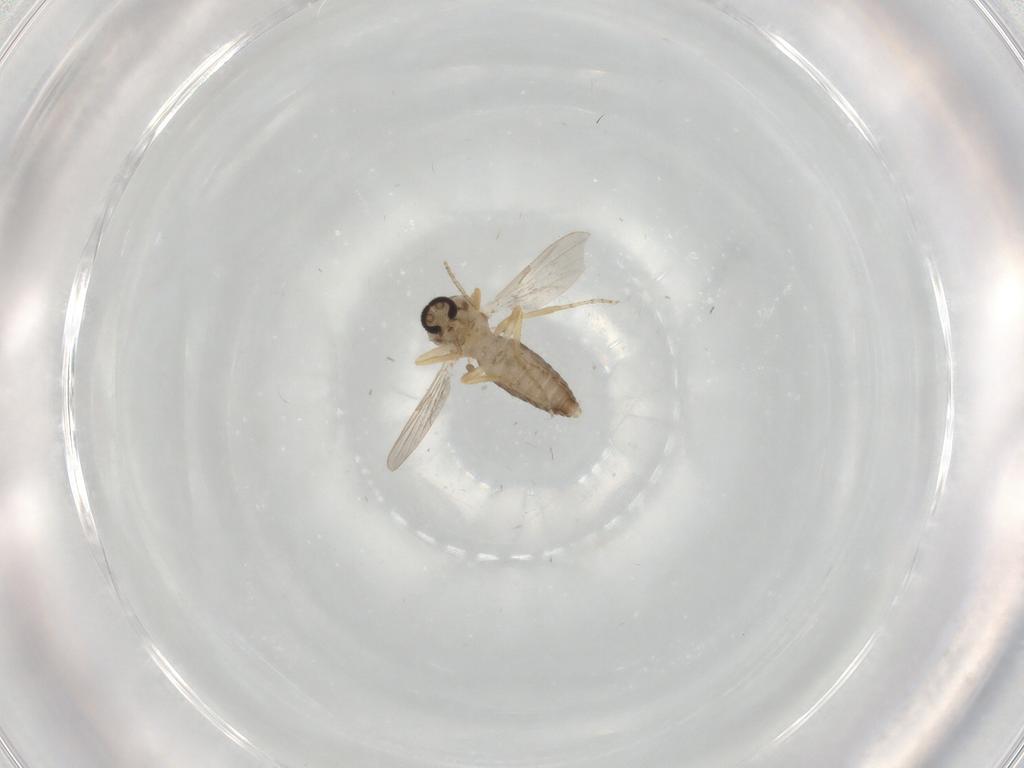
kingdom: Animalia
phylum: Arthropoda
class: Insecta
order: Diptera
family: Ceratopogonidae
